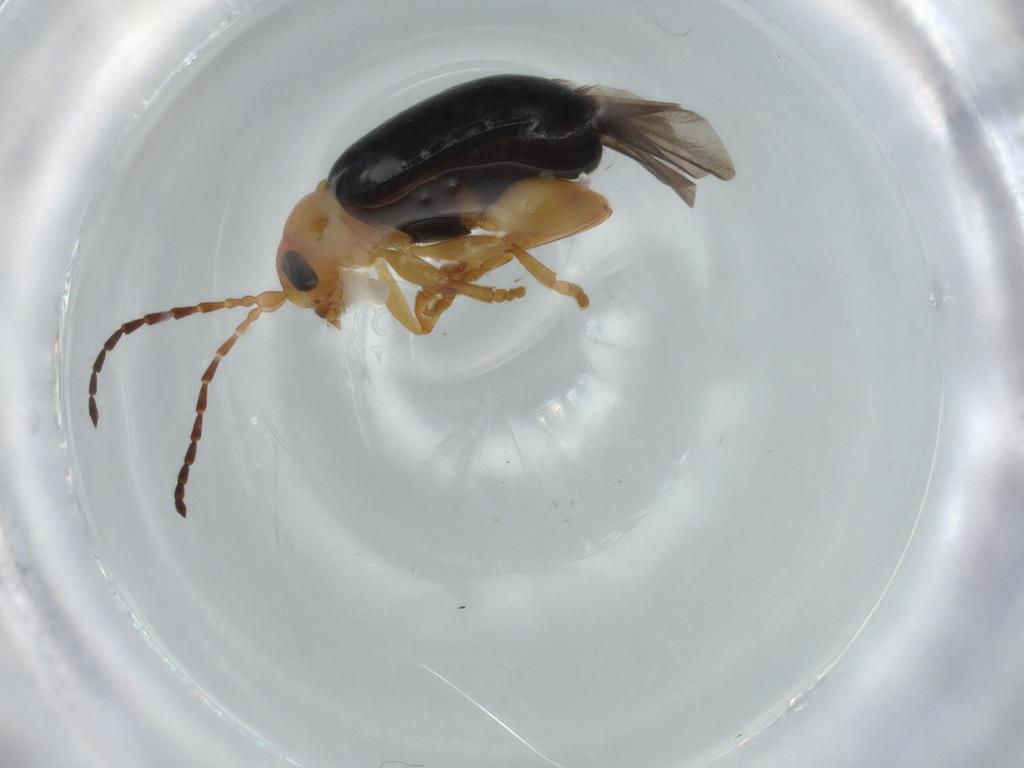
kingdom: Animalia
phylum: Arthropoda
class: Insecta
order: Coleoptera
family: Chrysomelidae
